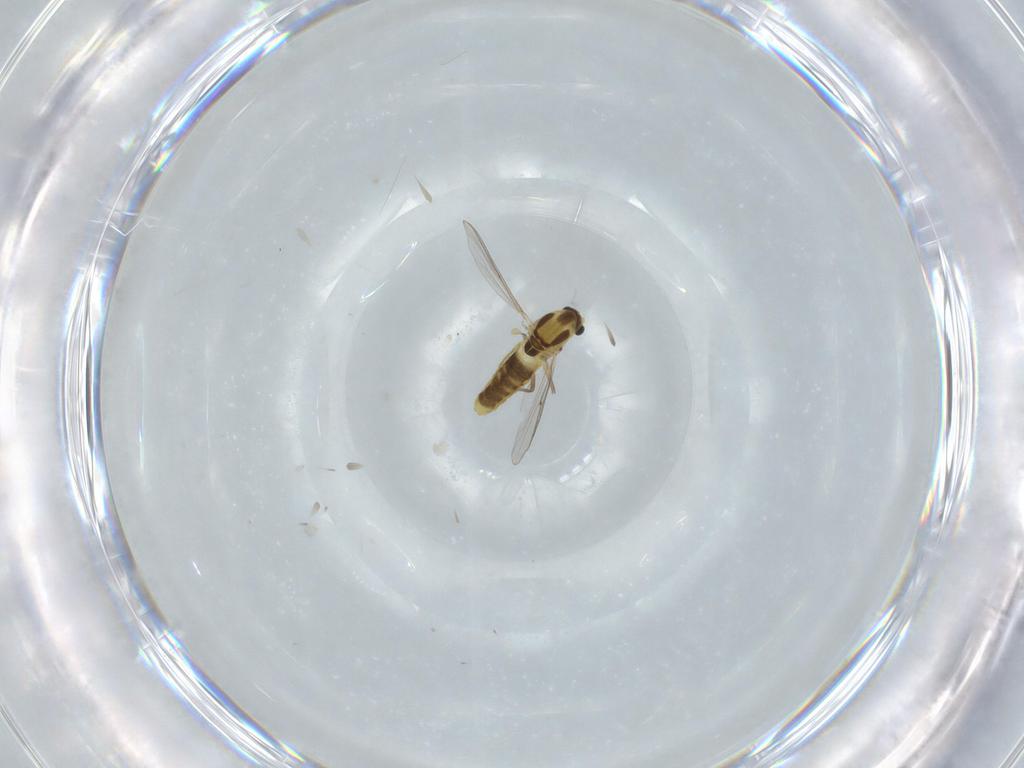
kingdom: Animalia
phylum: Arthropoda
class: Insecta
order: Diptera
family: Chironomidae
